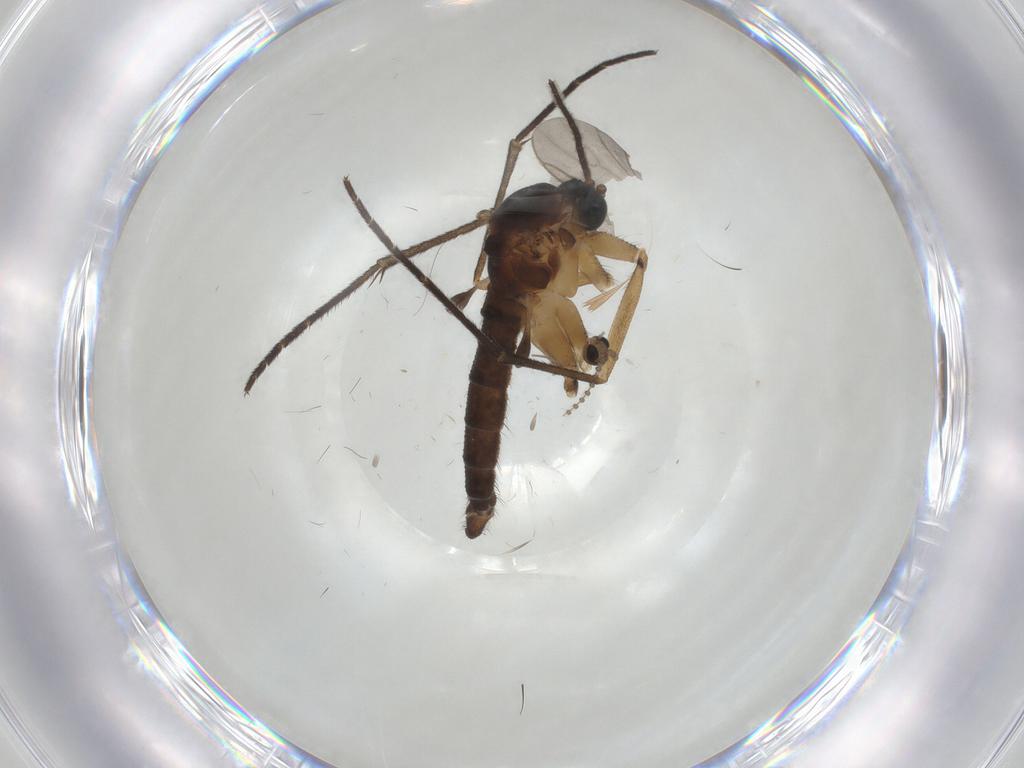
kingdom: Animalia
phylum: Arthropoda
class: Insecta
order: Diptera
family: Sciaridae
